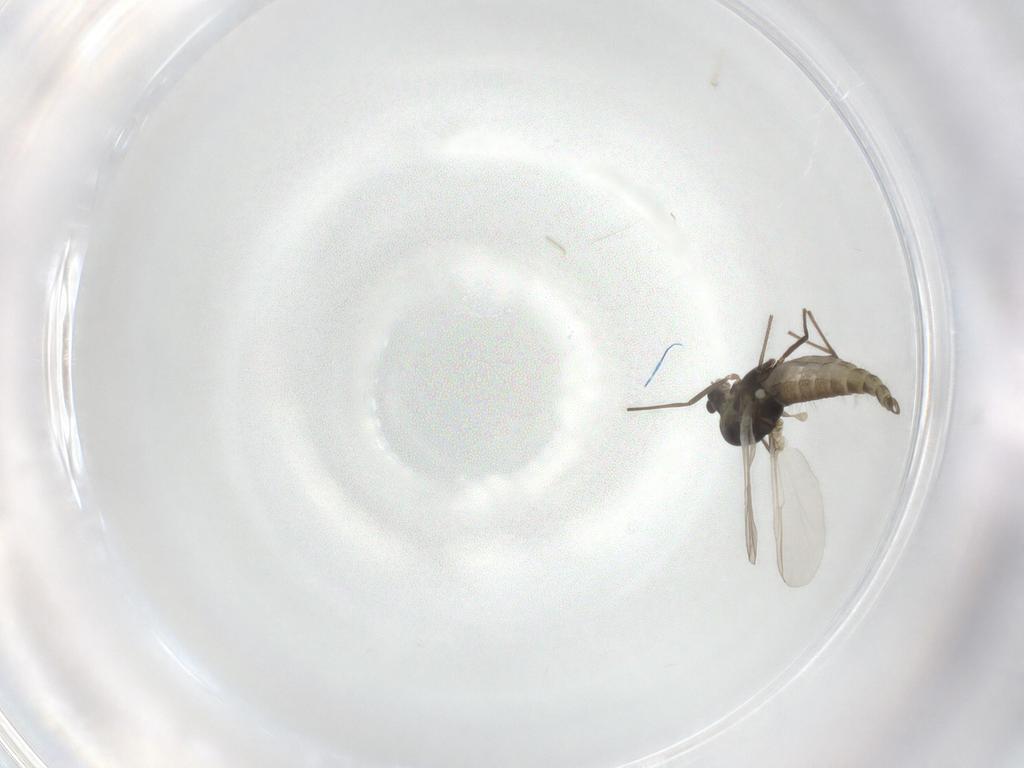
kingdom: Animalia
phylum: Arthropoda
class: Insecta
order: Diptera
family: Chironomidae
